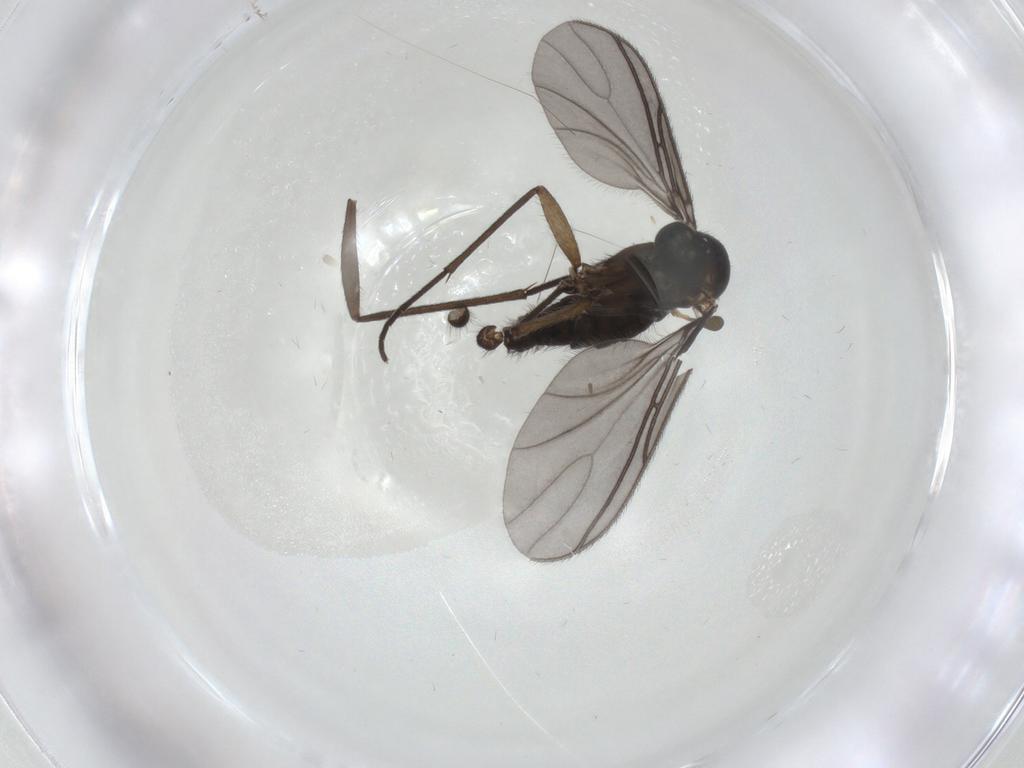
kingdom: Animalia
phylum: Arthropoda
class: Insecta
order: Diptera
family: Sciaridae
